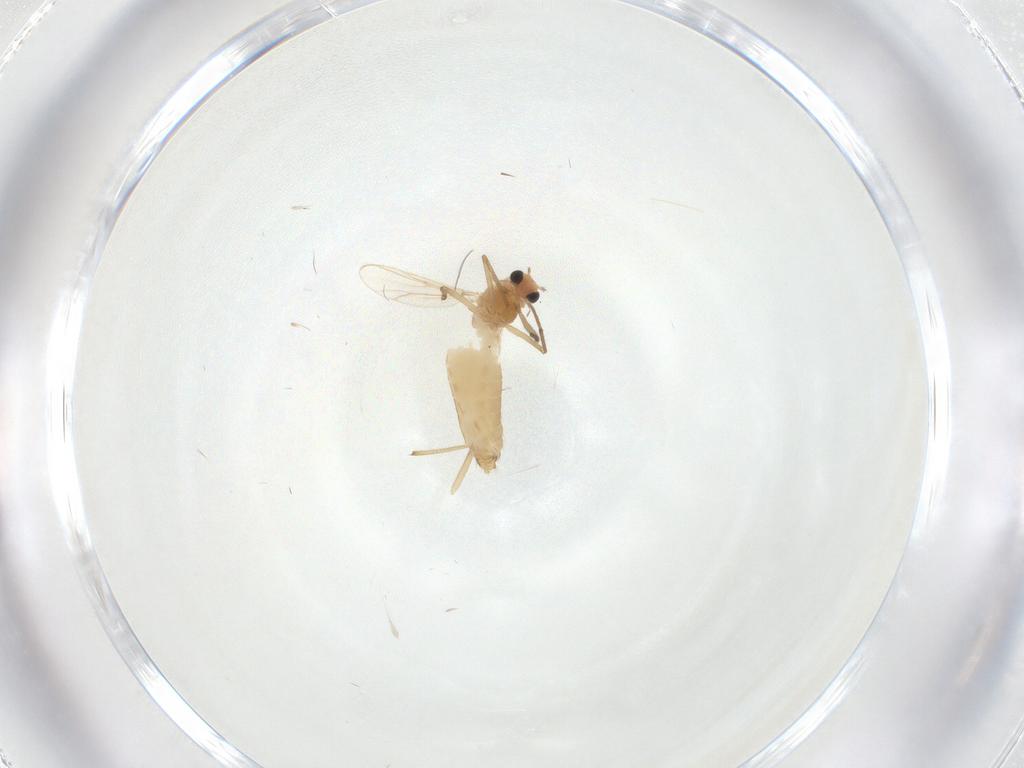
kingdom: Animalia
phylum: Arthropoda
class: Insecta
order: Diptera
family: Chironomidae
